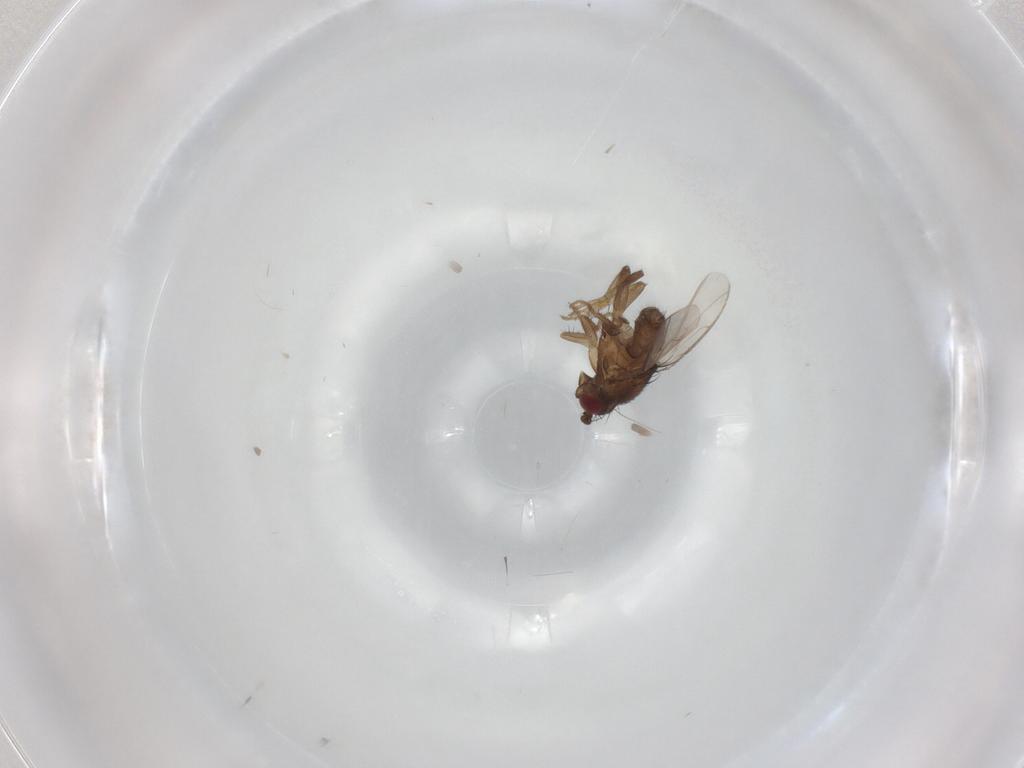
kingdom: Animalia
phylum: Arthropoda
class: Insecta
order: Diptera
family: Sphaeroceridae
